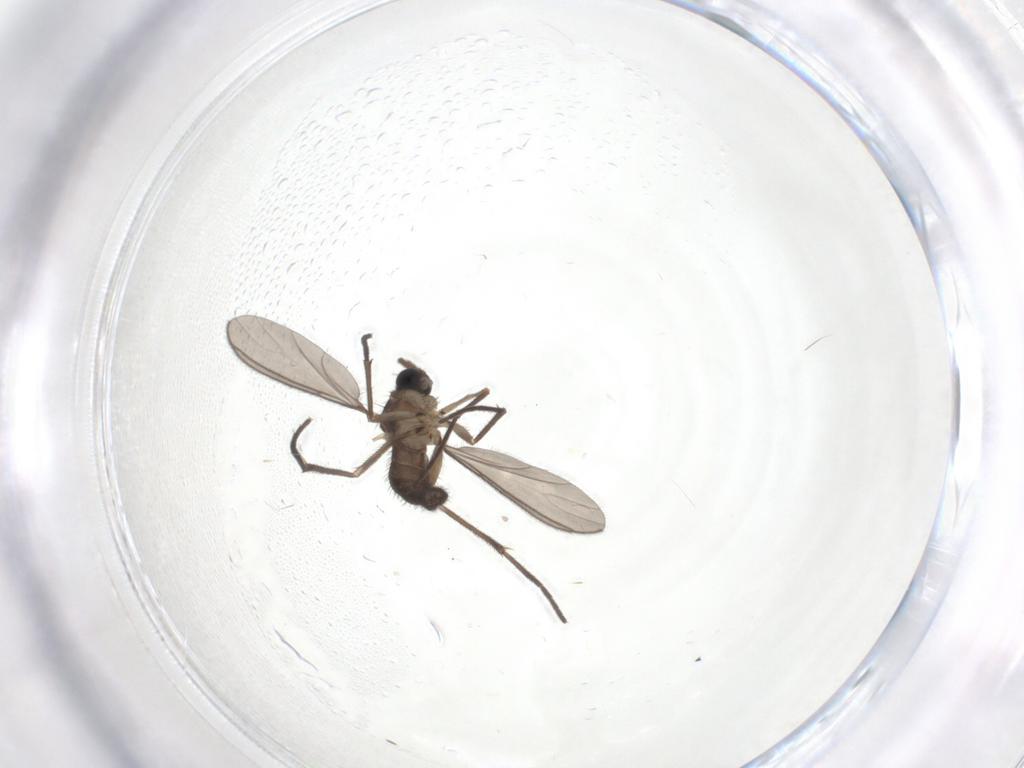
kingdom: Animalia
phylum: Arthropoda
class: Insecta
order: Diptera
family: Sciaridae
